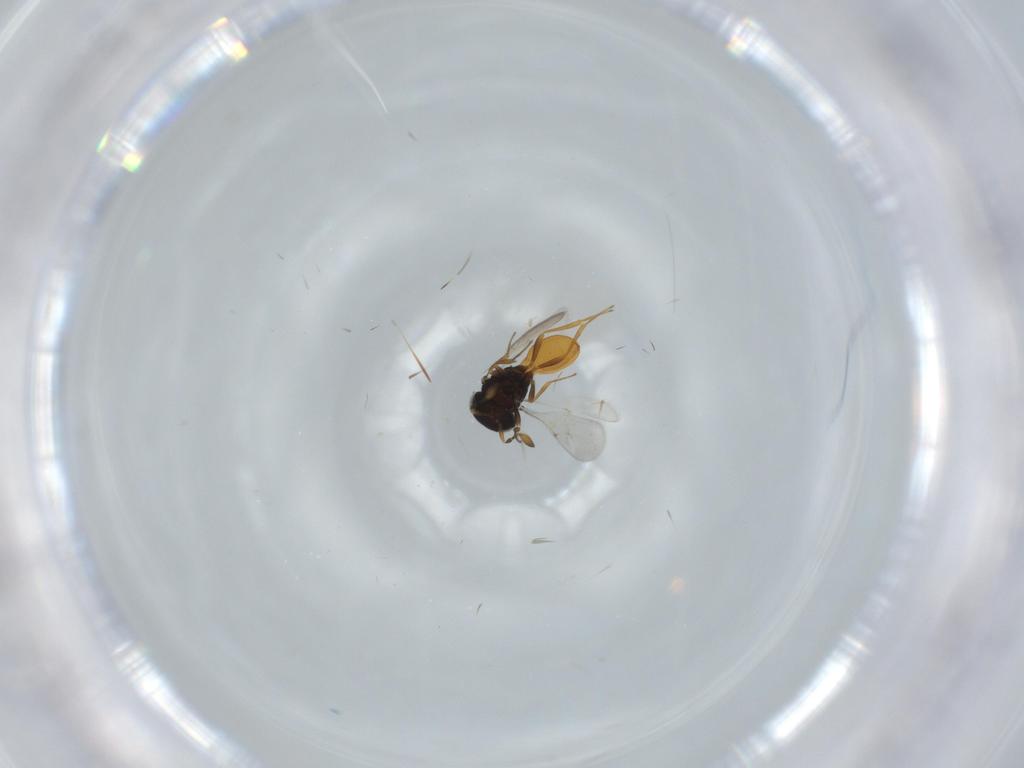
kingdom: Animalia
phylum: Arthropoda
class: Insecta
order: Hymenoptera
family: Scelionidae
